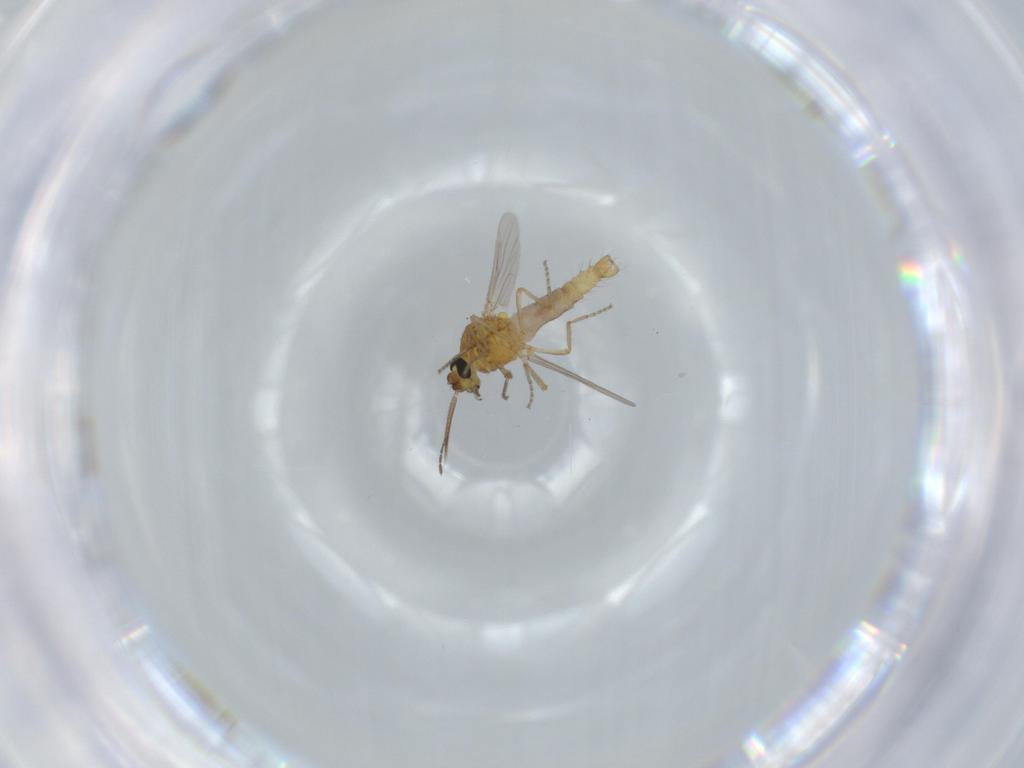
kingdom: Animalia
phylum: Arthropoda
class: Insecta
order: Diptera
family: Ceratopogonidae
